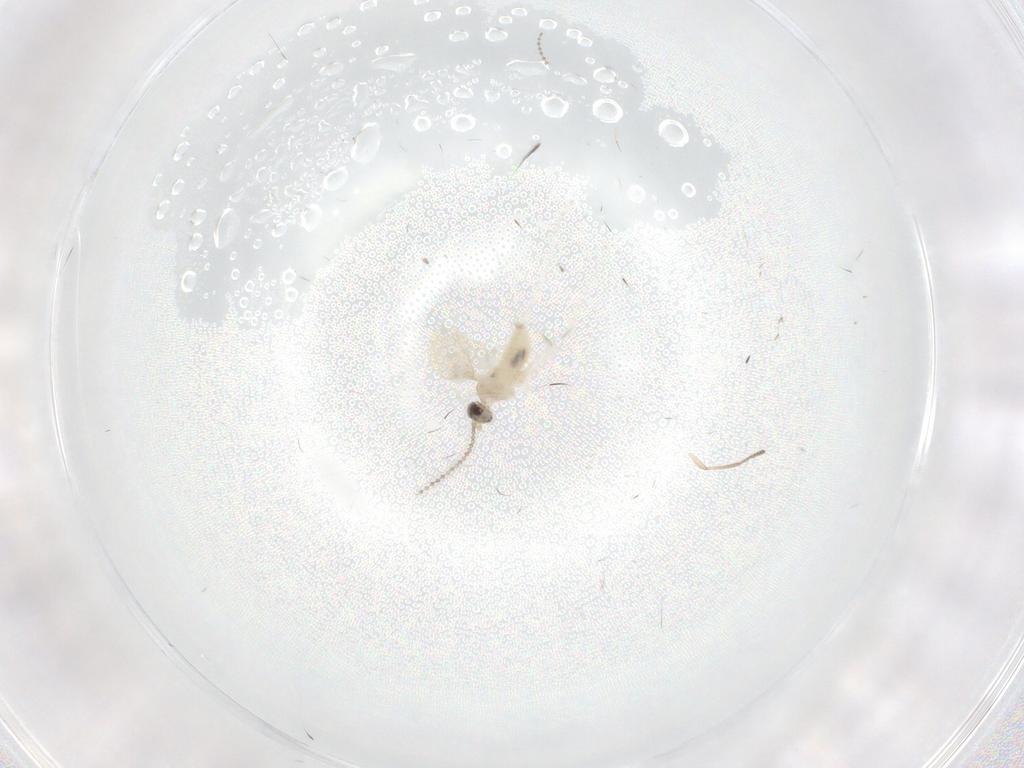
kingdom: Animalia
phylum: Arthropoda
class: Insecta
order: Diptera
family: Cecidomyiidae
